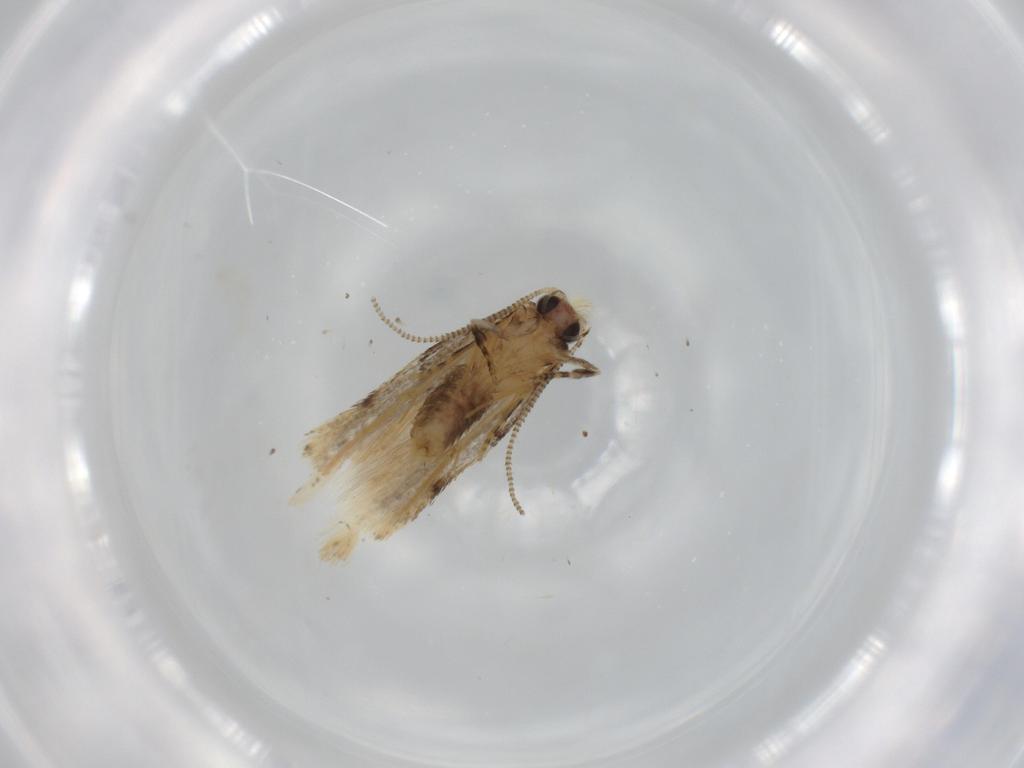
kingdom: Animalia
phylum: Arthropoda
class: Insecta
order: Lepidoptera
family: Tineidae
